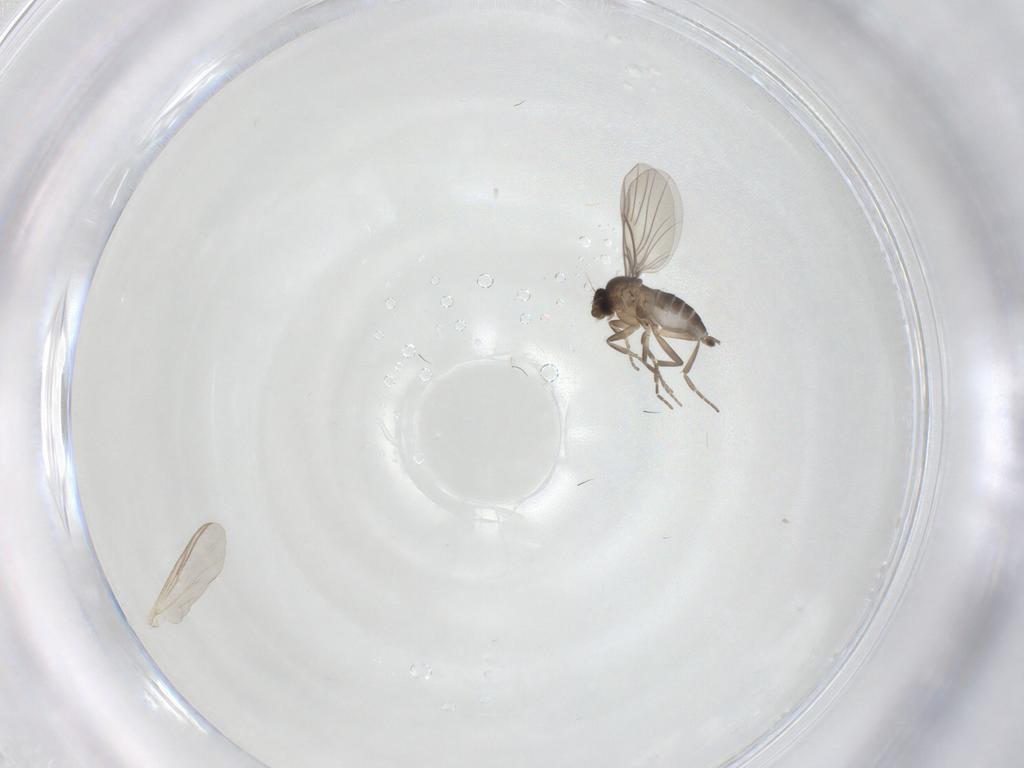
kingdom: Animalia
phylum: Arthropoda
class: Insecta
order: Diptera
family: Phoridae
